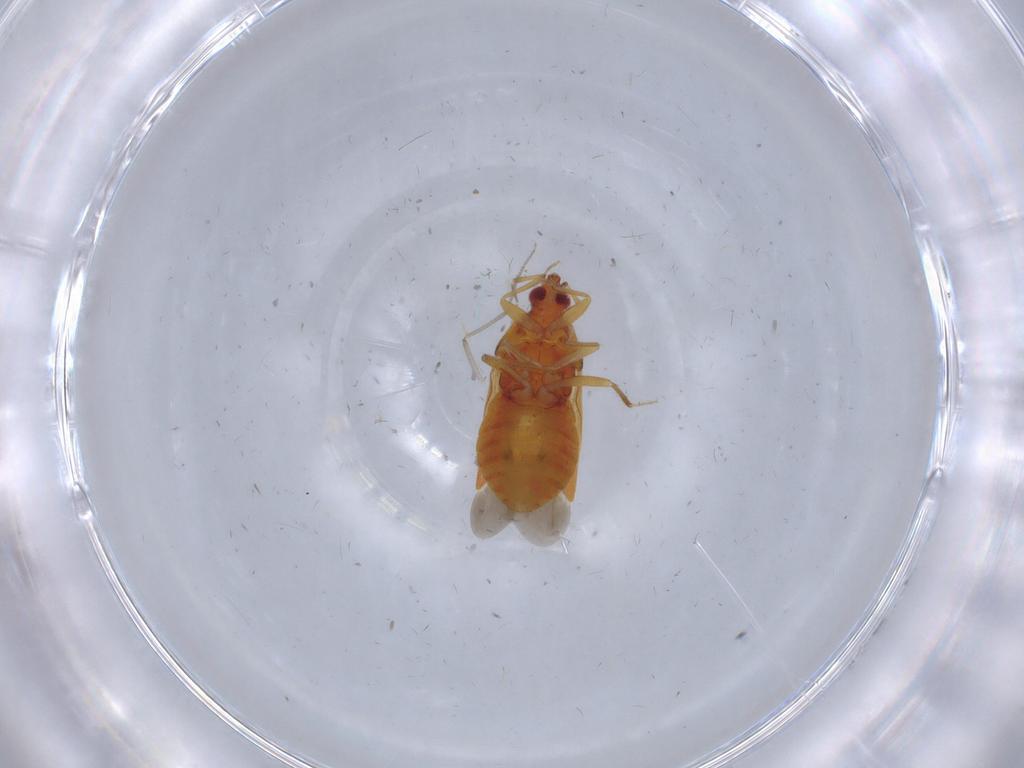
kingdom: Animalia
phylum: Arthropoda
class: Insecta
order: Hemiptera
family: Anthocoridae
